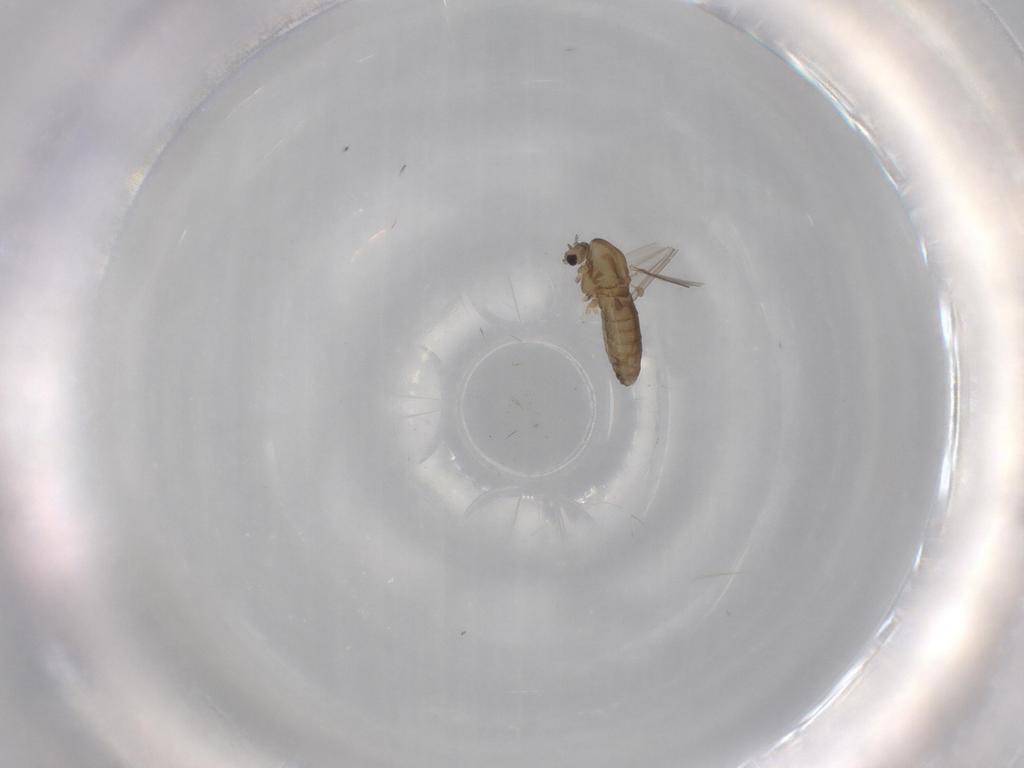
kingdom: Animalia
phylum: Arthropoda
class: Insecta
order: Diptera
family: Chironomidae
